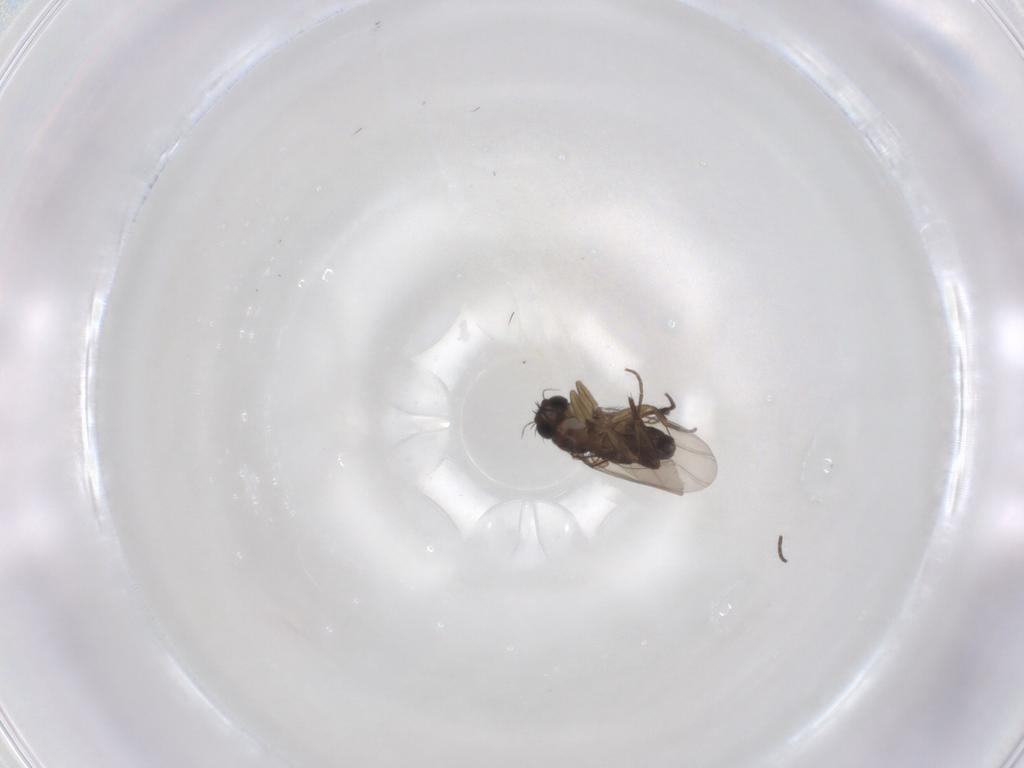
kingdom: Animalia
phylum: Arthropoda
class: Insecta
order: Diptera
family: Phoridae
